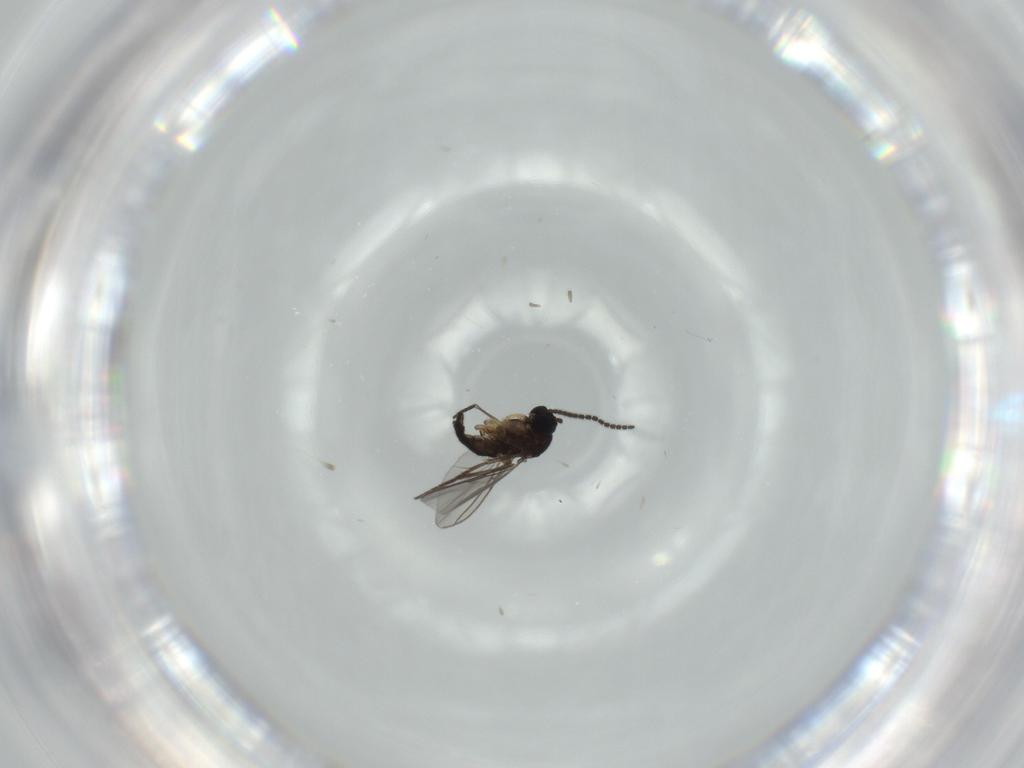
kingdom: Animalia
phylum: Arthropoda
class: Insecta
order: Diptera
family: Sciaridae
